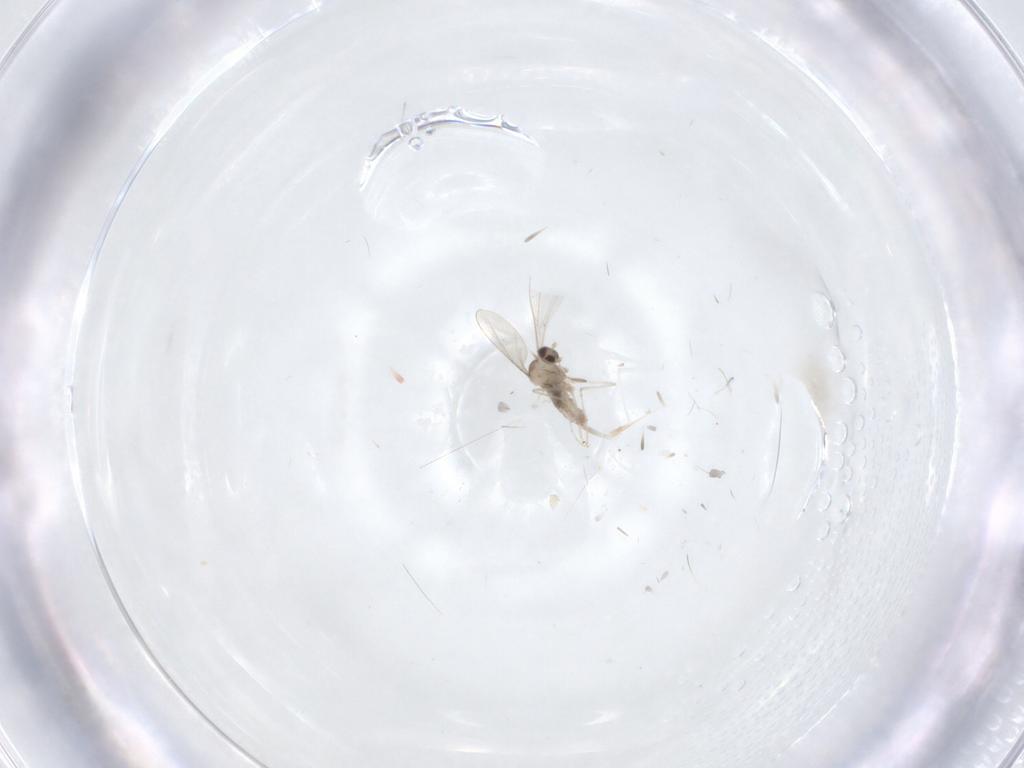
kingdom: Animalia
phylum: Arthropoda
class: Insecta
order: Diptera
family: Cecidomyiidae
